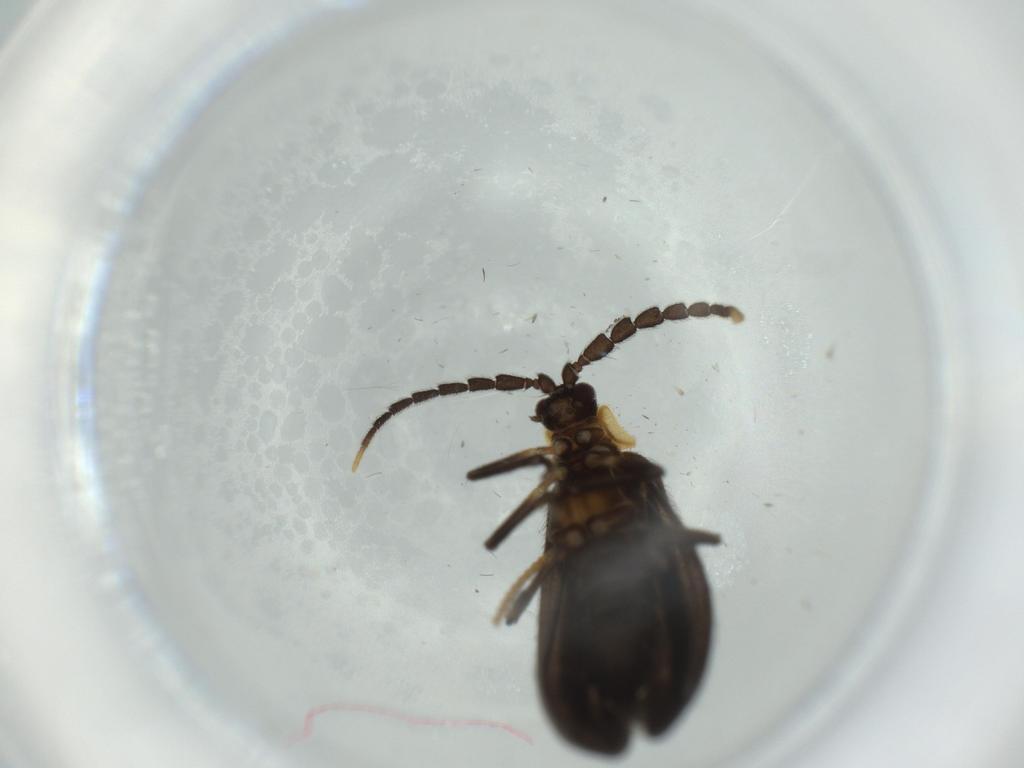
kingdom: Animalia
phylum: Arthropoda
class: Insecta
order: Coleoptera
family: Lycidae
